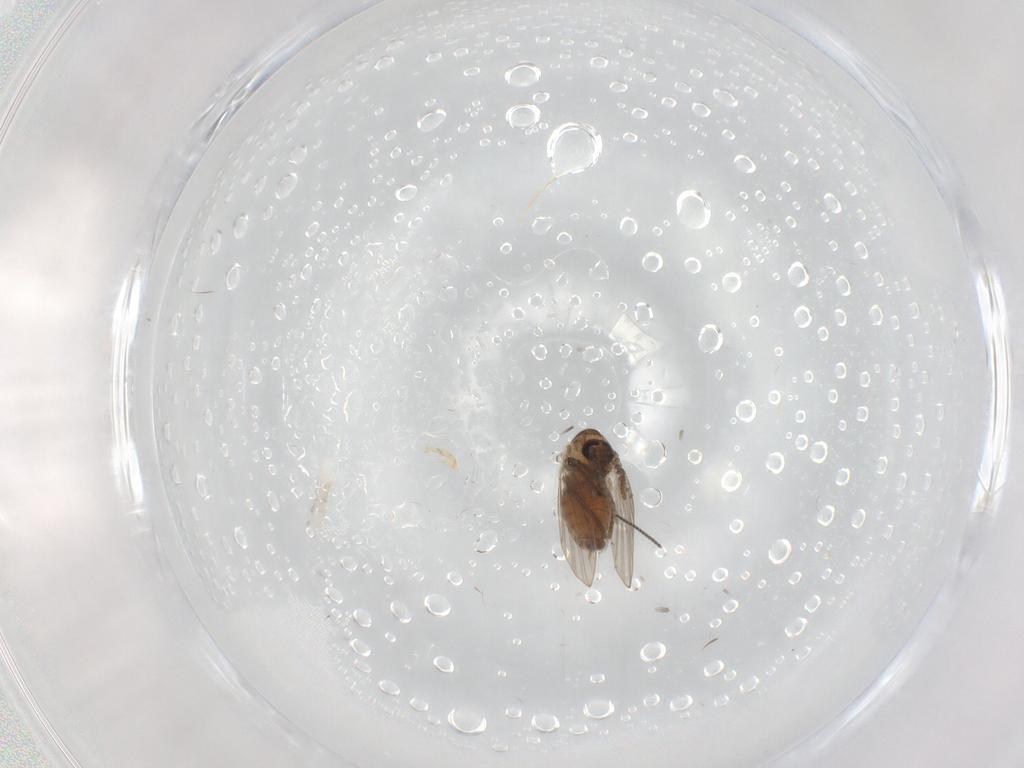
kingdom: Animalia
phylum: Arthropoda
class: Insecta
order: Diptera
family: Psychodidae
